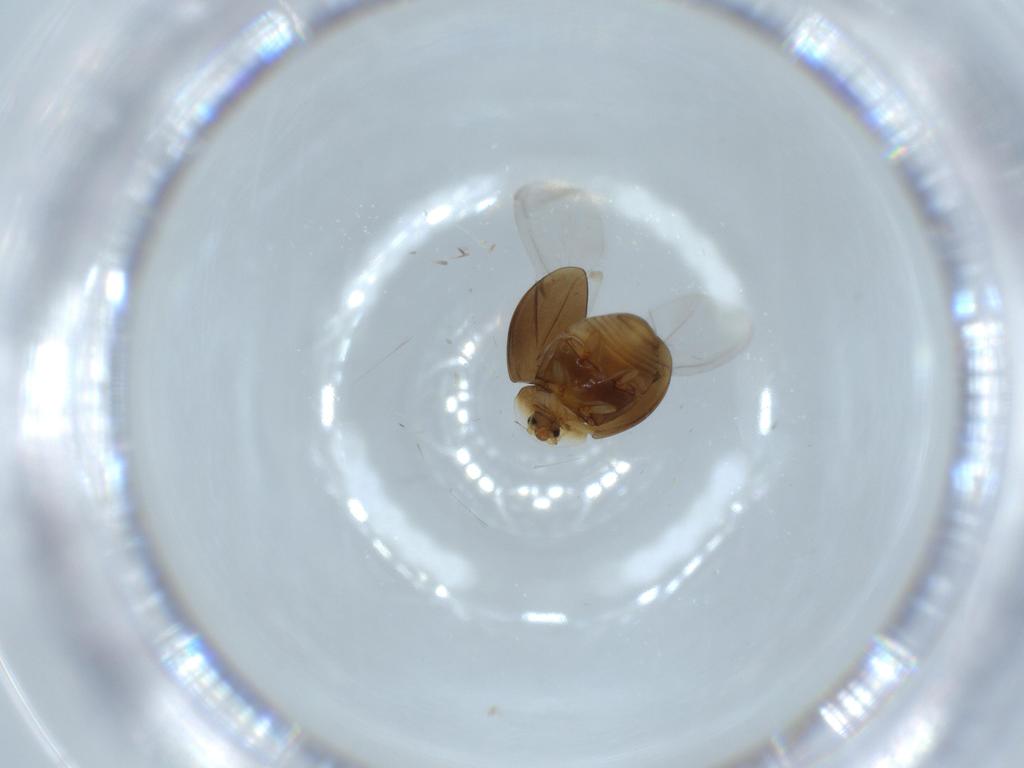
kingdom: Animalia
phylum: Arthropoda
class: Insecta
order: Coleoptera
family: Corylophidae
